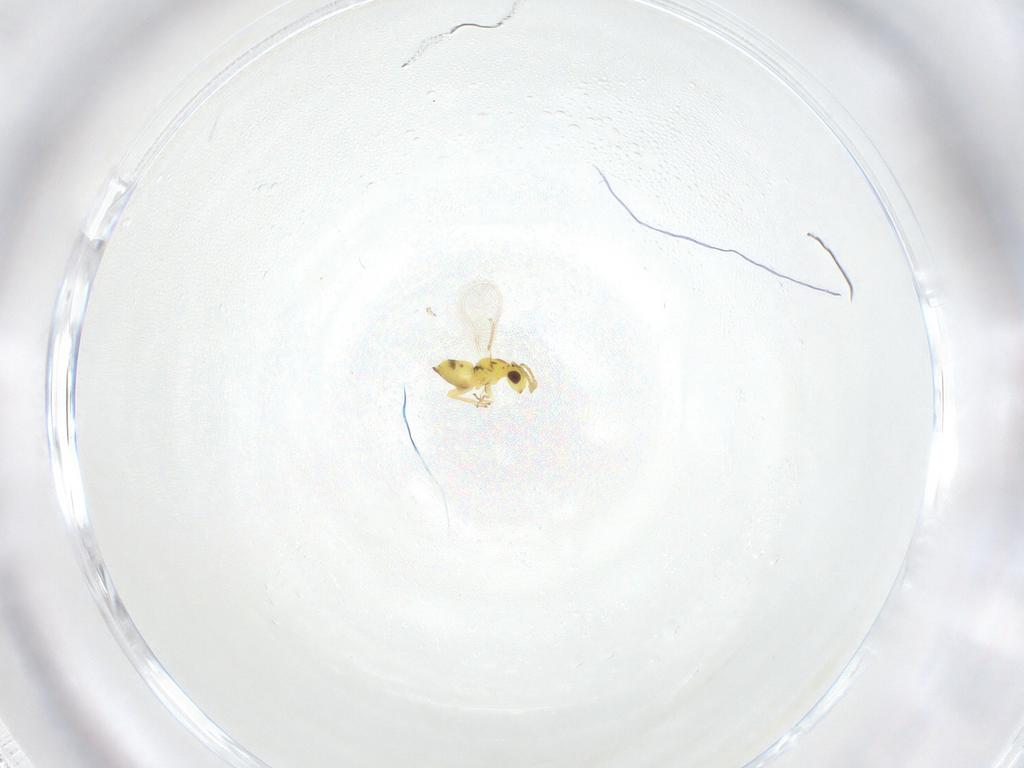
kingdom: Animalia
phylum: Arthropoda
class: Insecta
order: Hymenoptera
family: Eulophidae
